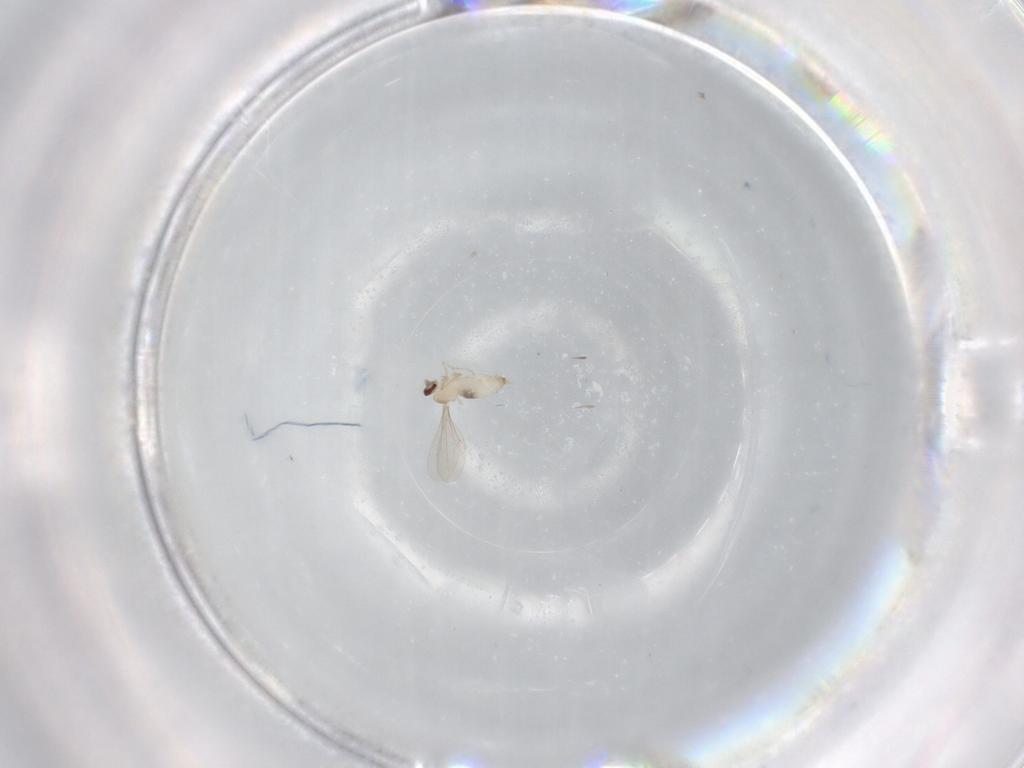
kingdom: Animalia
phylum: Arthropoda
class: Insecta
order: Diptera
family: Cecidomyiidae
